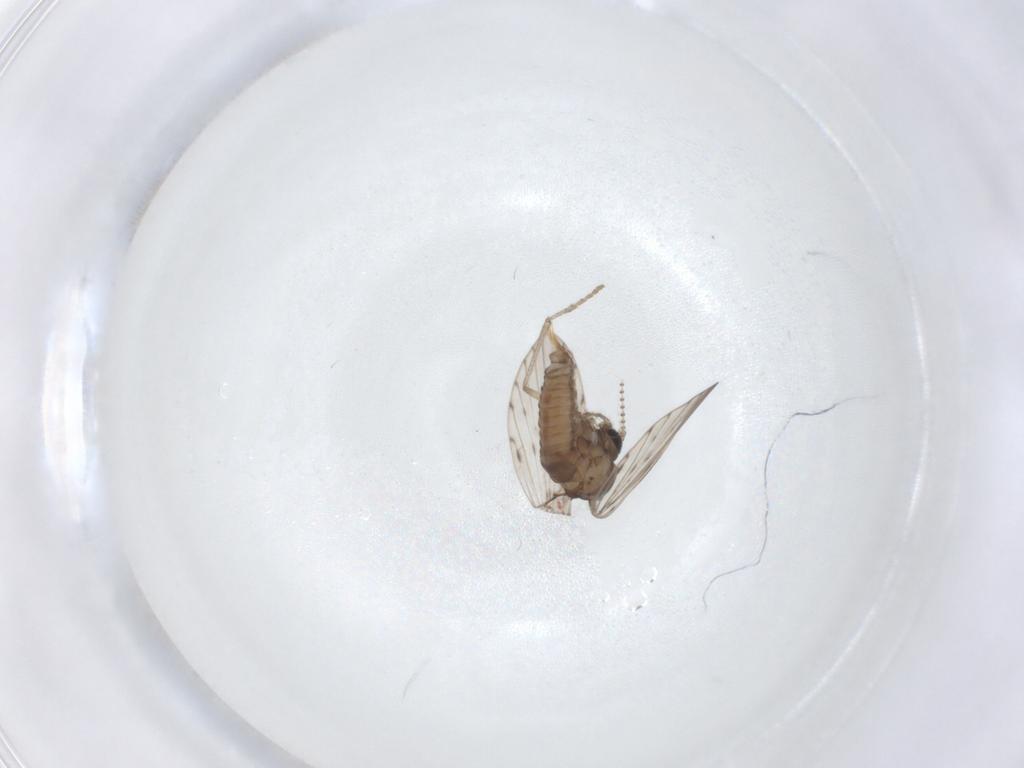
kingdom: Animalia
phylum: Arthropoda
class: Insecta
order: Diptera
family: Psychodidae
